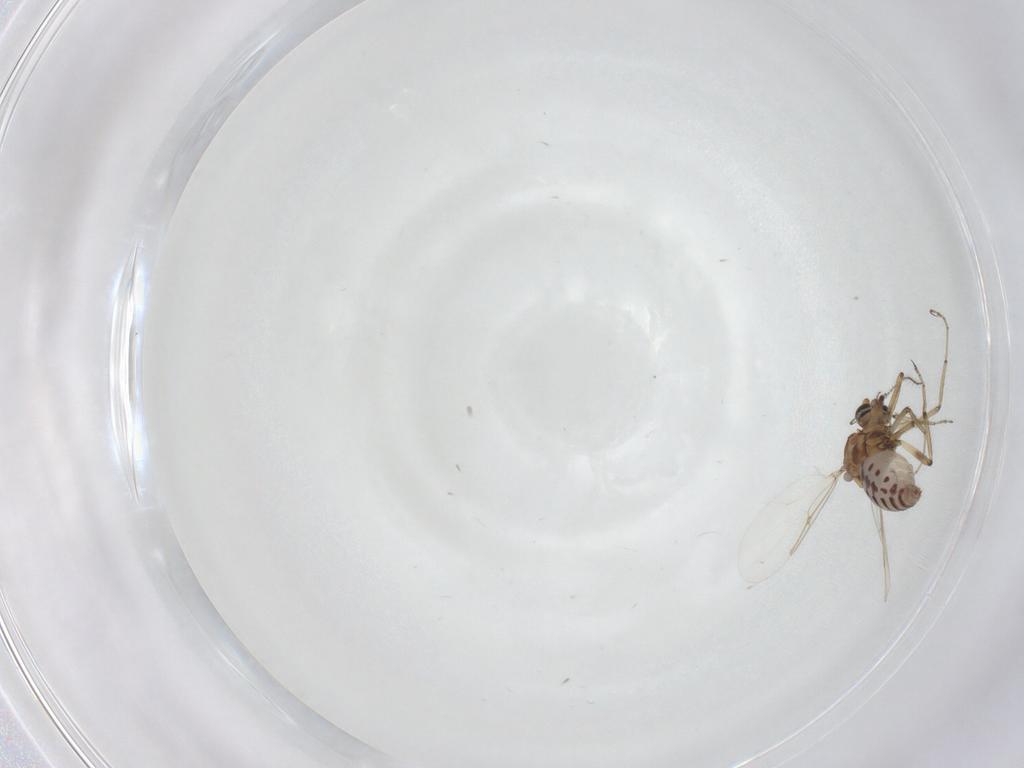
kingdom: Animalia
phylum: Arthropoda
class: Insecta
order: Diptera
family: Ceratopogonidae
